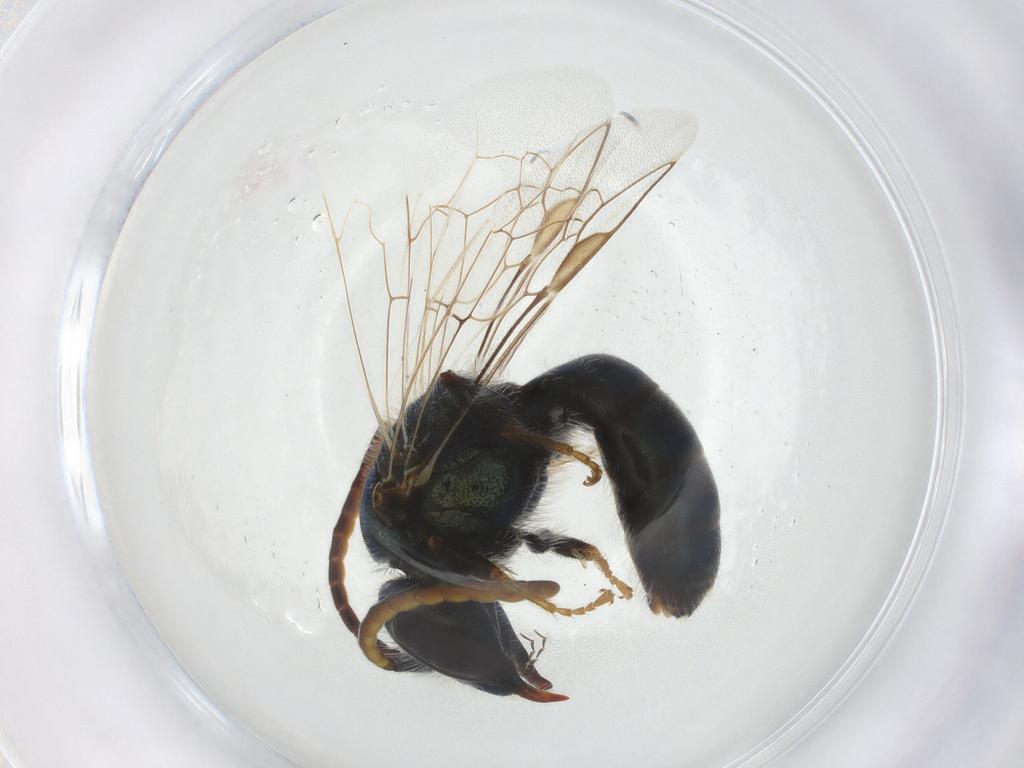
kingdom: Animalia
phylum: Arthropoda
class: Insecta
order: Hymenoptera
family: Halictidae
